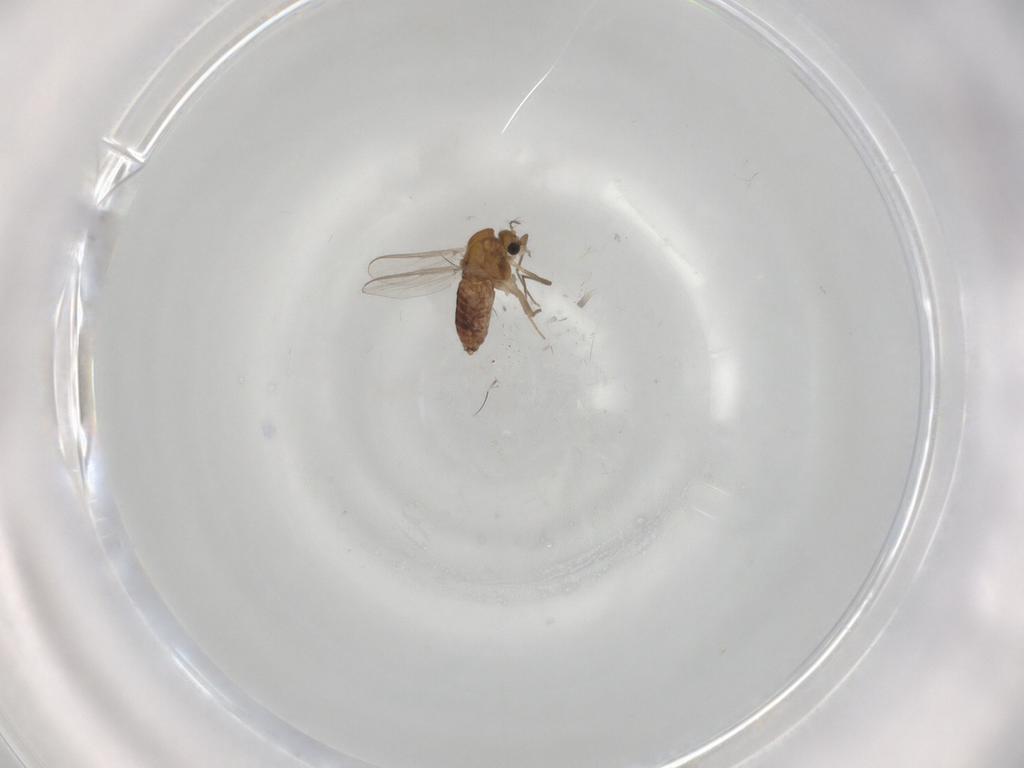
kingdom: Animalia
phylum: Arthropoda
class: Insecta
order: Diptera
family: Chironomidae
